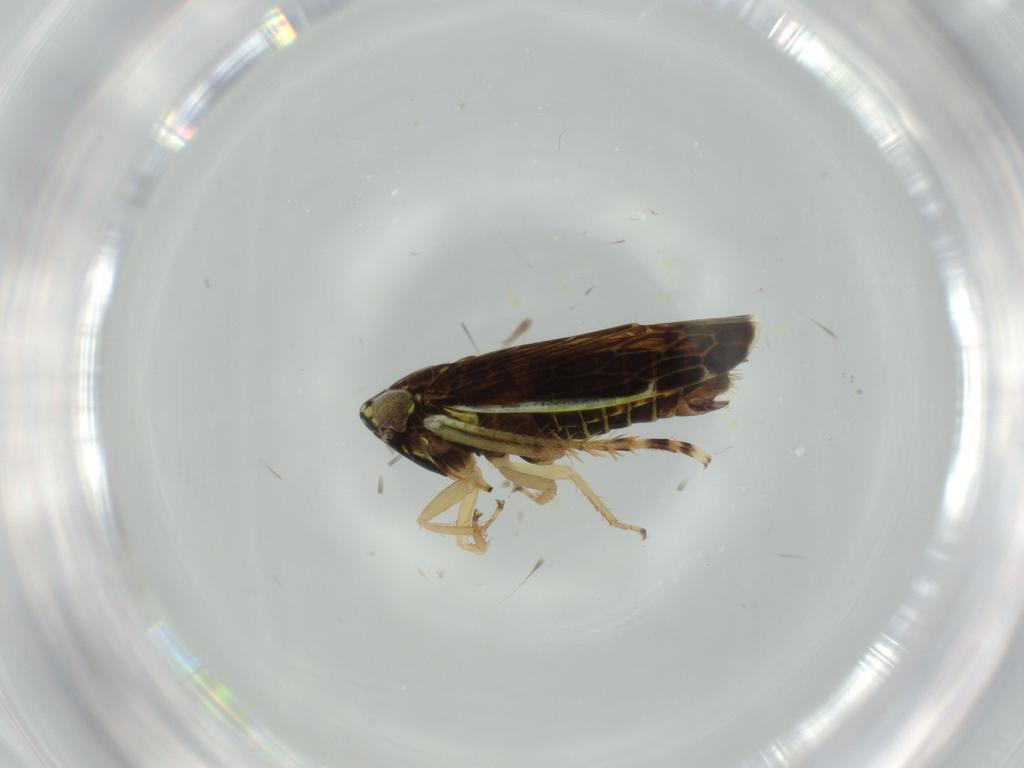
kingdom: Animalia
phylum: Arthropoda
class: Insecta
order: Hemiptera
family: Cicadellidae
